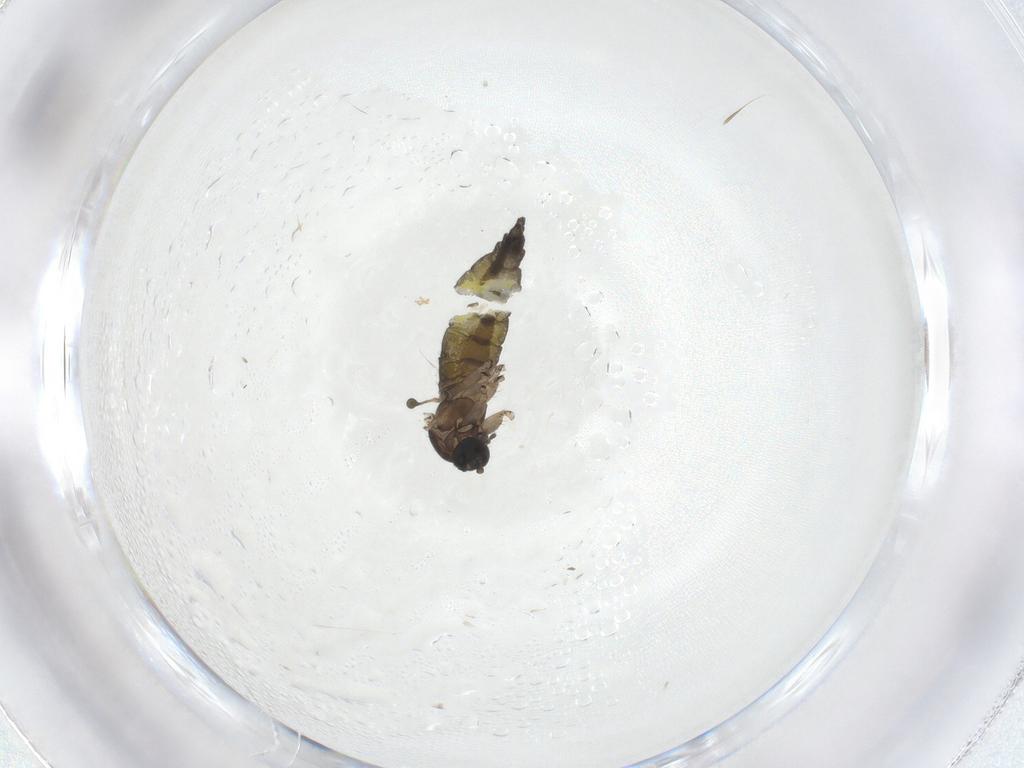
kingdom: Animalia
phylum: Arthropoda
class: Insecta
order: Diptera
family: Sciaridae
